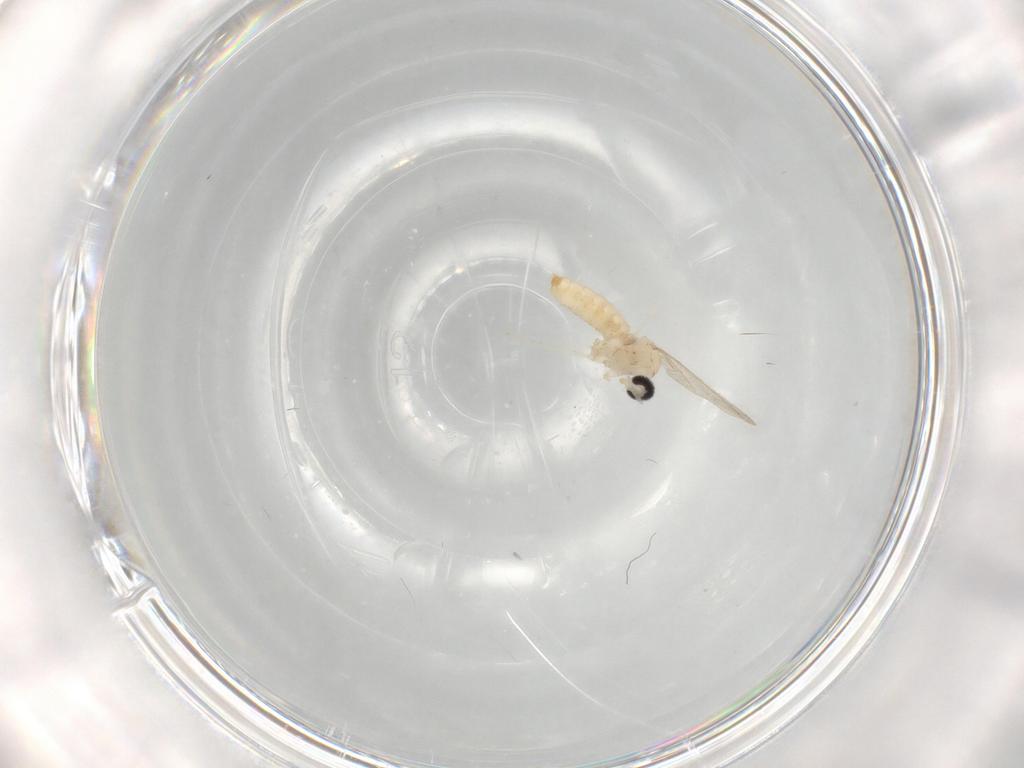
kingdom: Animalia
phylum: Arthropoda
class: Insecta
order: Diptera
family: Cecidomyiidae
